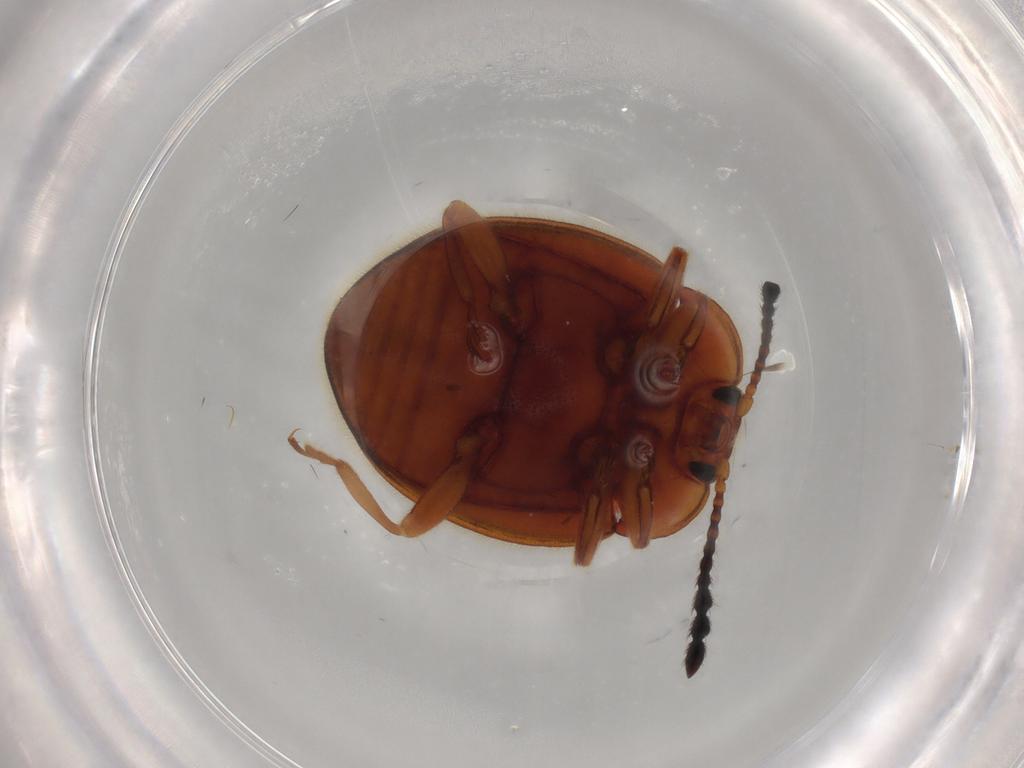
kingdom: Animalia
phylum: Arthropoda
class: Insecta
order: Coleoptera
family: Endomychidae
